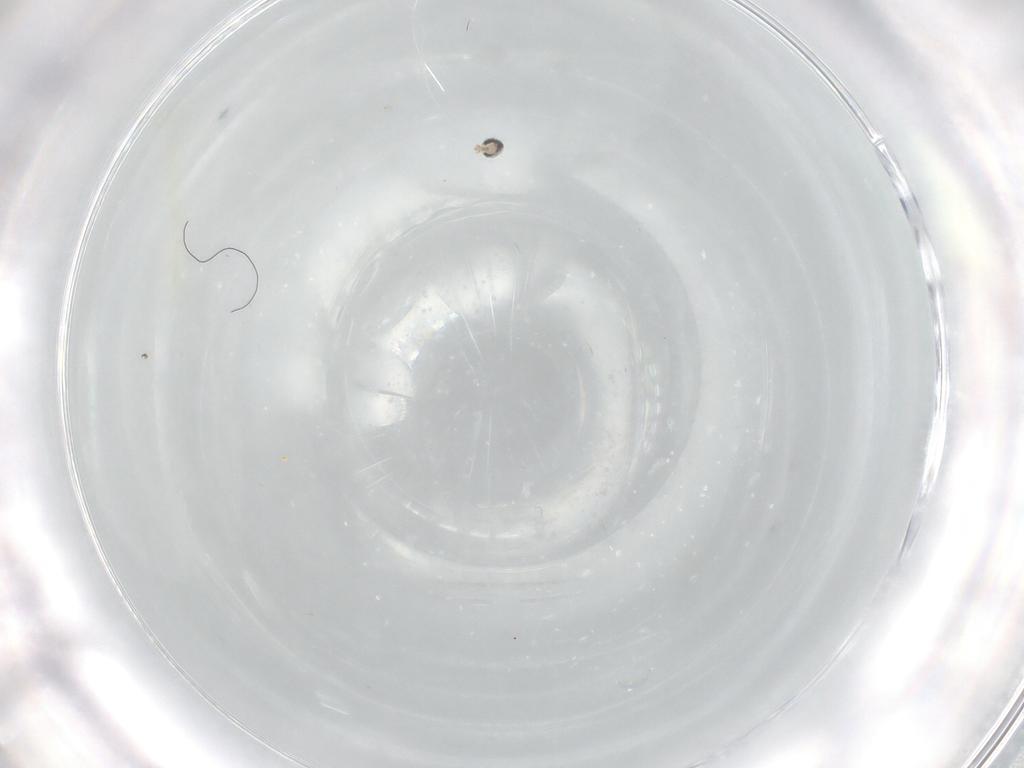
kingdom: Animalia
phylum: Arthropoda
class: Insecta
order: Diptera
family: Cecidomyiidae
